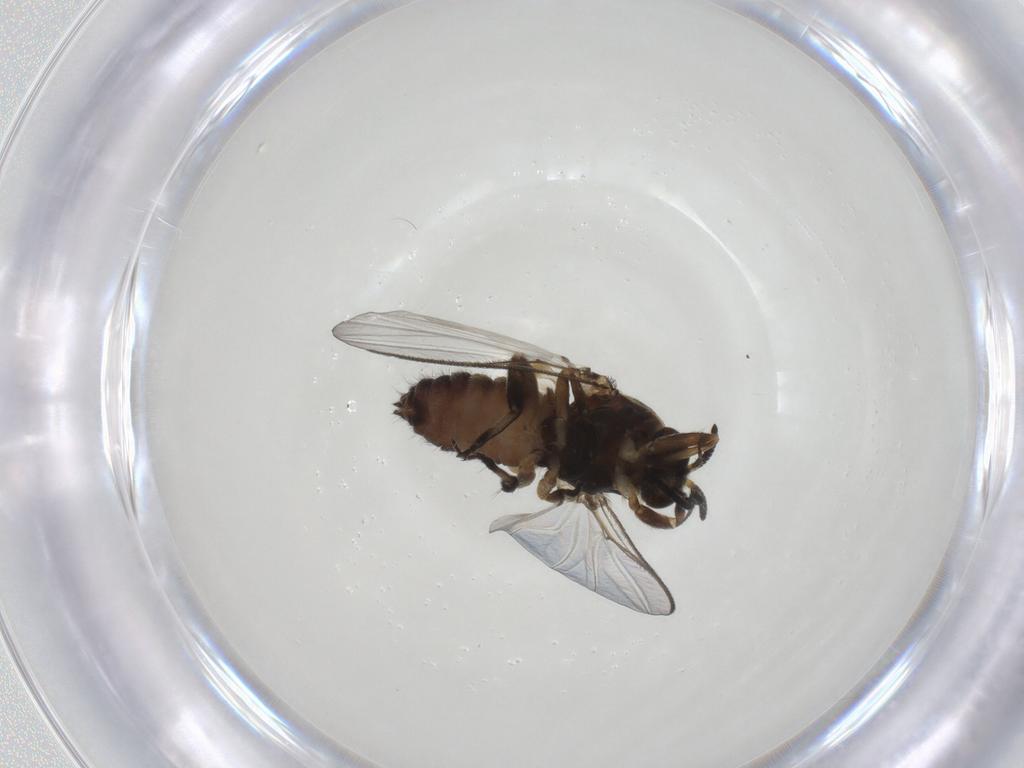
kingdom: Animalia
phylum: Arthropoda
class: Insecta
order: Diptera
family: Simuliidae
